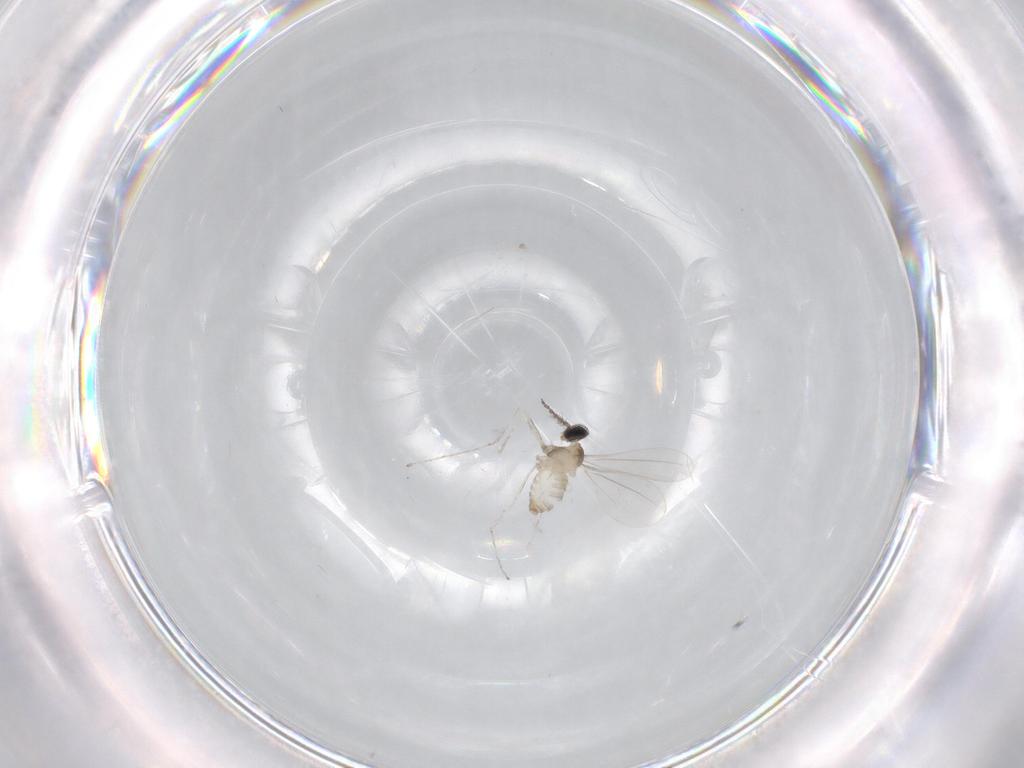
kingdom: Animalia
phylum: Arthropoda
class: Insecta
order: Diptera
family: Cecidomyiidae
